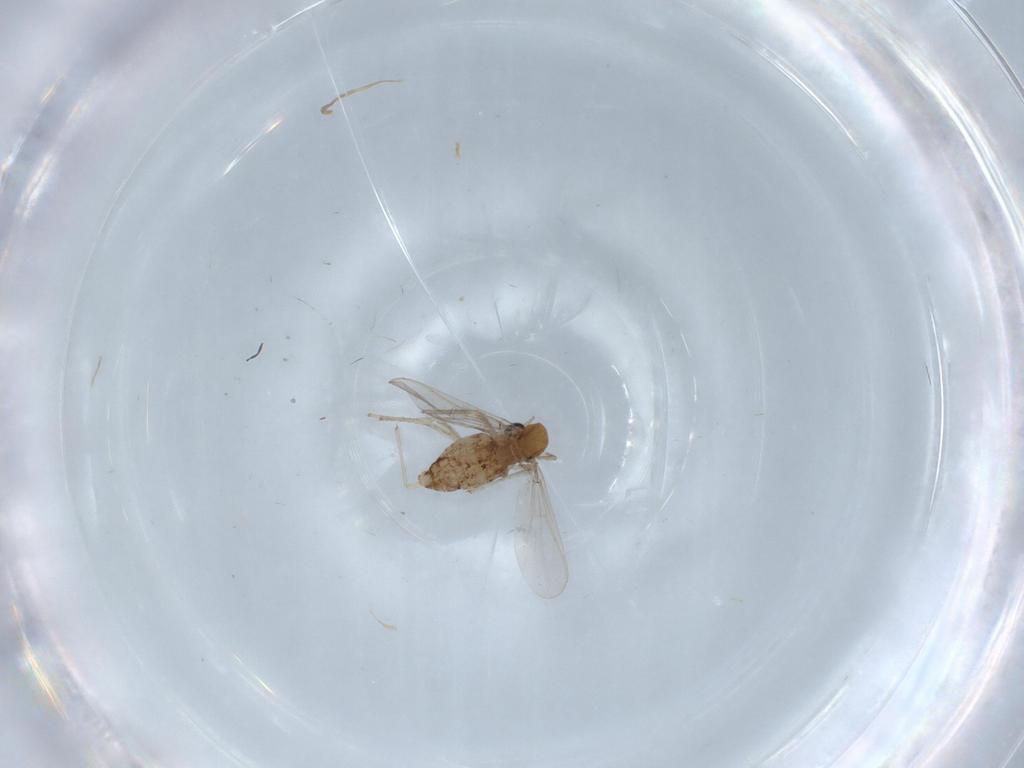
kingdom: Animalia
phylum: Arthropoda
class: Insecta
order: Diptera
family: Chironomidae
